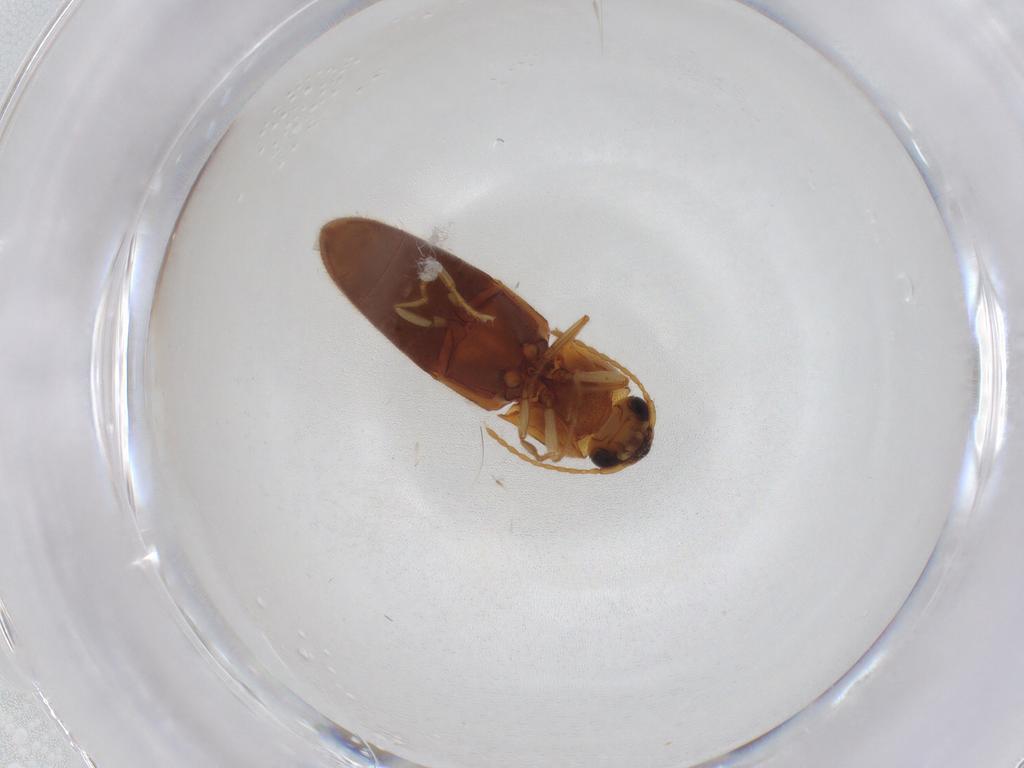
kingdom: Animalia
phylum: Arthropoda
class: Insecta
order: Coleoptera
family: Elateridae
